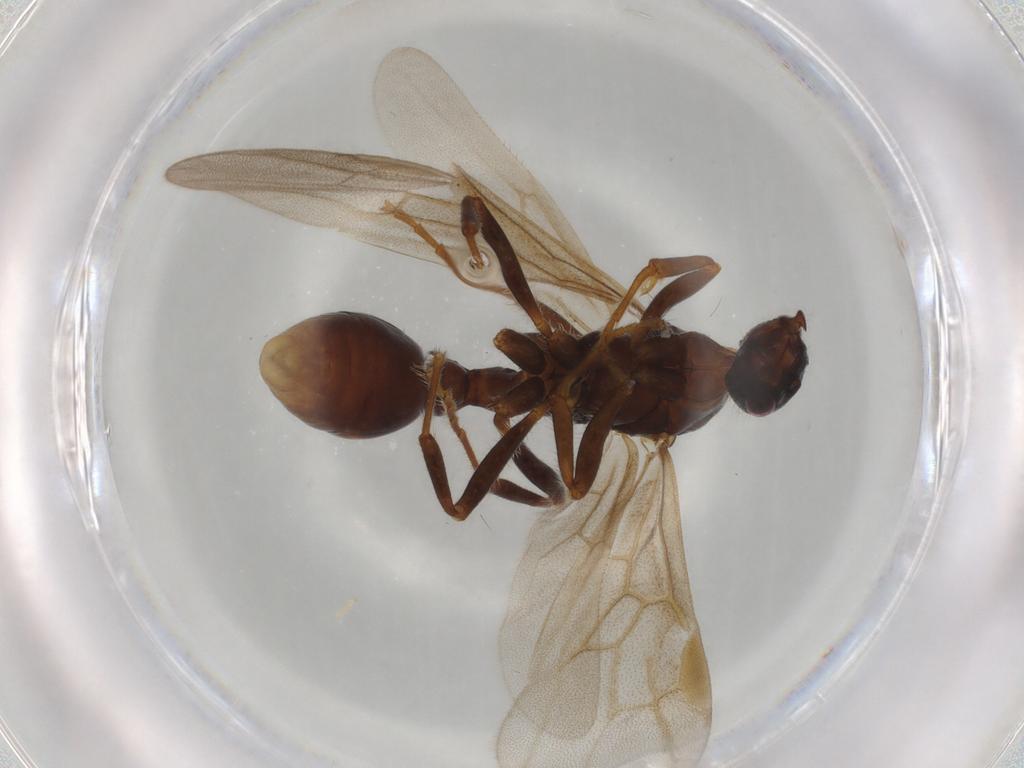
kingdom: Animalia
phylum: Arthropoda
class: Insecta
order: Hymenoptera
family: Formicidae
